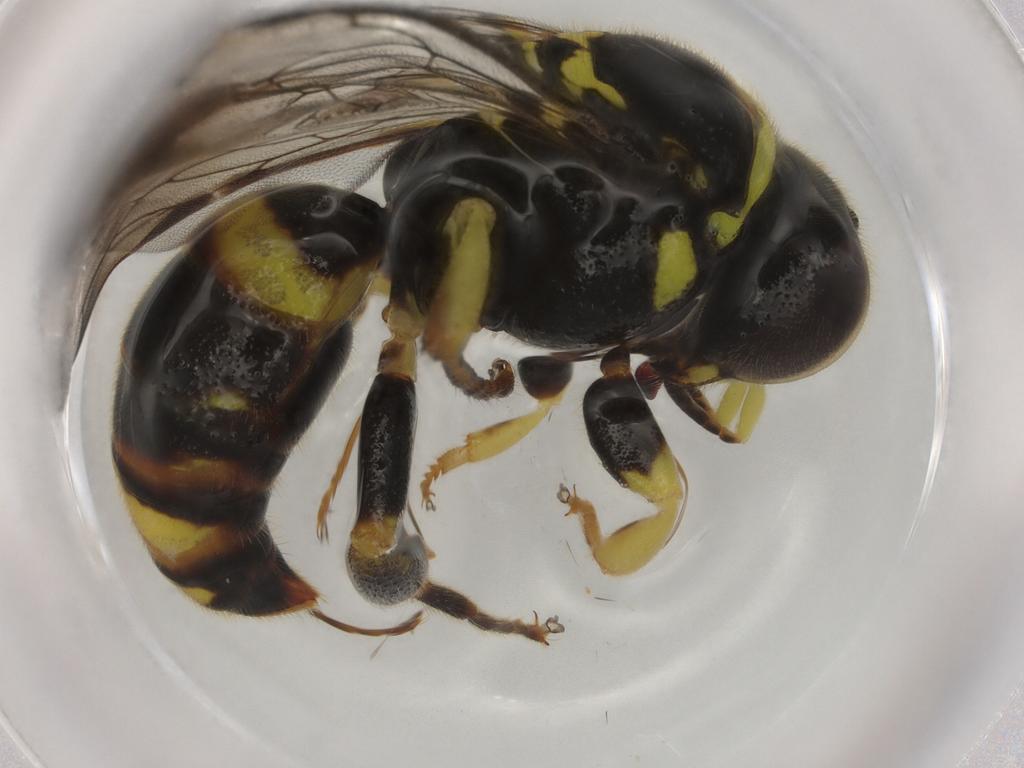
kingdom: Animalia
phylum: Arthropoda
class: Insecta
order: Hymenoptera
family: Crabronidae
